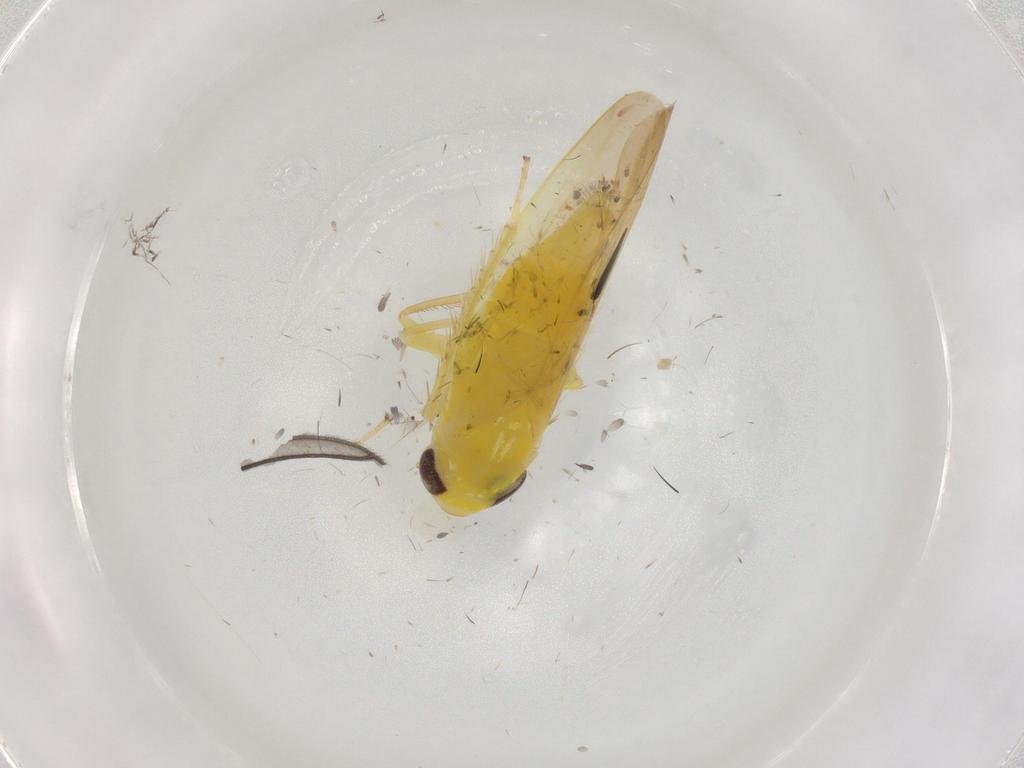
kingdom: Animalia
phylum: Arthropoda
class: Insecta
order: Hemiptera
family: Cicadellidae
